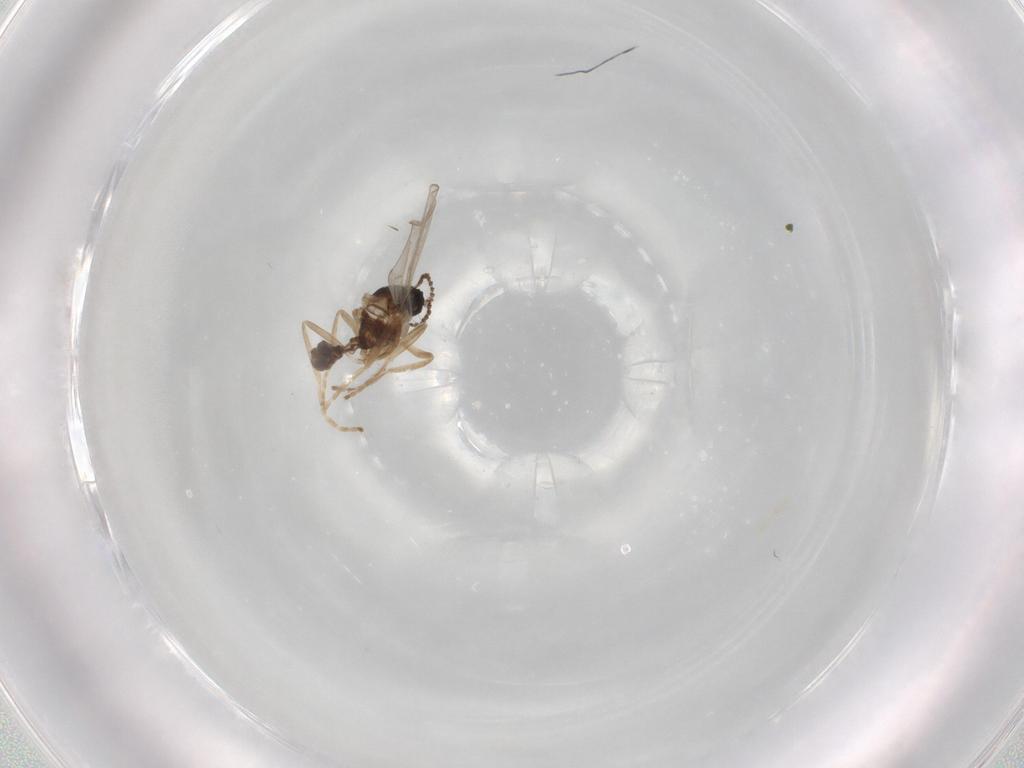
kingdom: Animalia
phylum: Arthropoda
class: Insecta
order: Diptera
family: Cecidomyiidae
